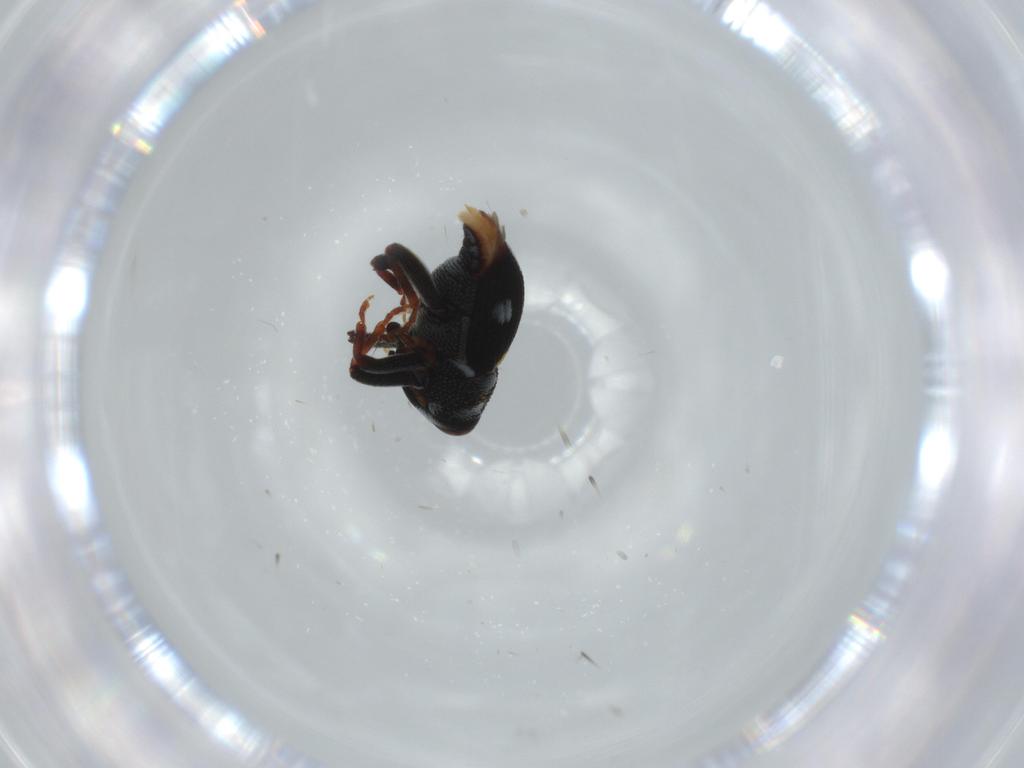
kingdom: Animalia
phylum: Arthropoda
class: Insecta
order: Coleoptera
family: Curculionidae
